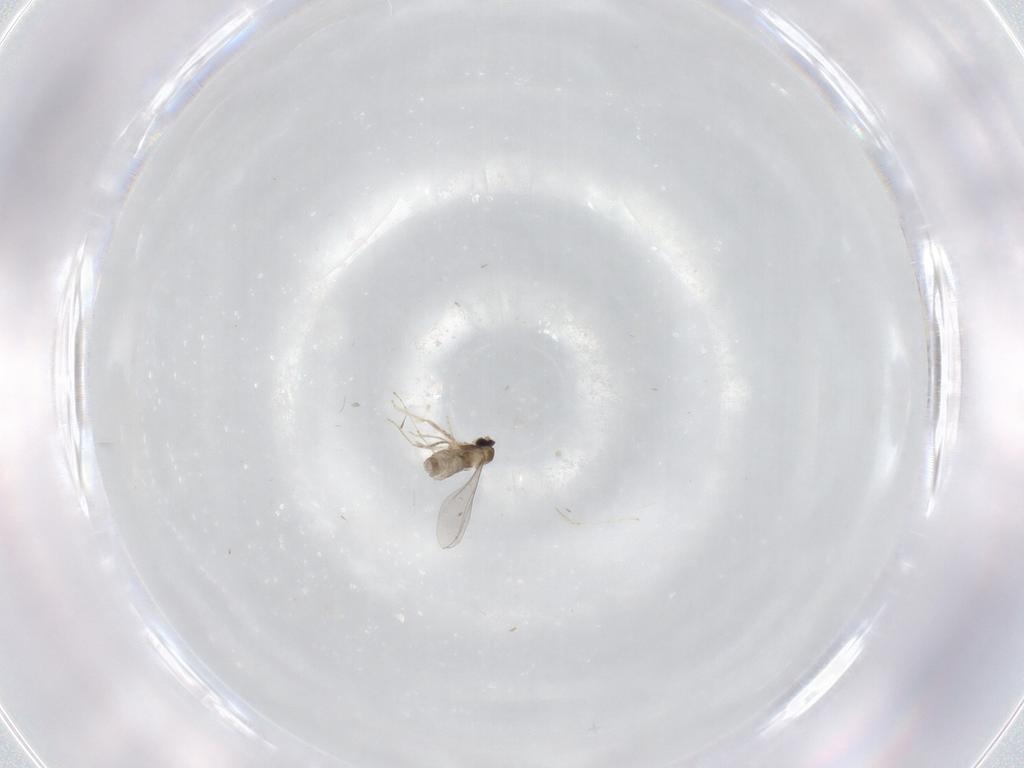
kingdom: Animalia
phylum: Arthropoda
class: Insecta
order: Diptera
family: Cecidomyiidae
